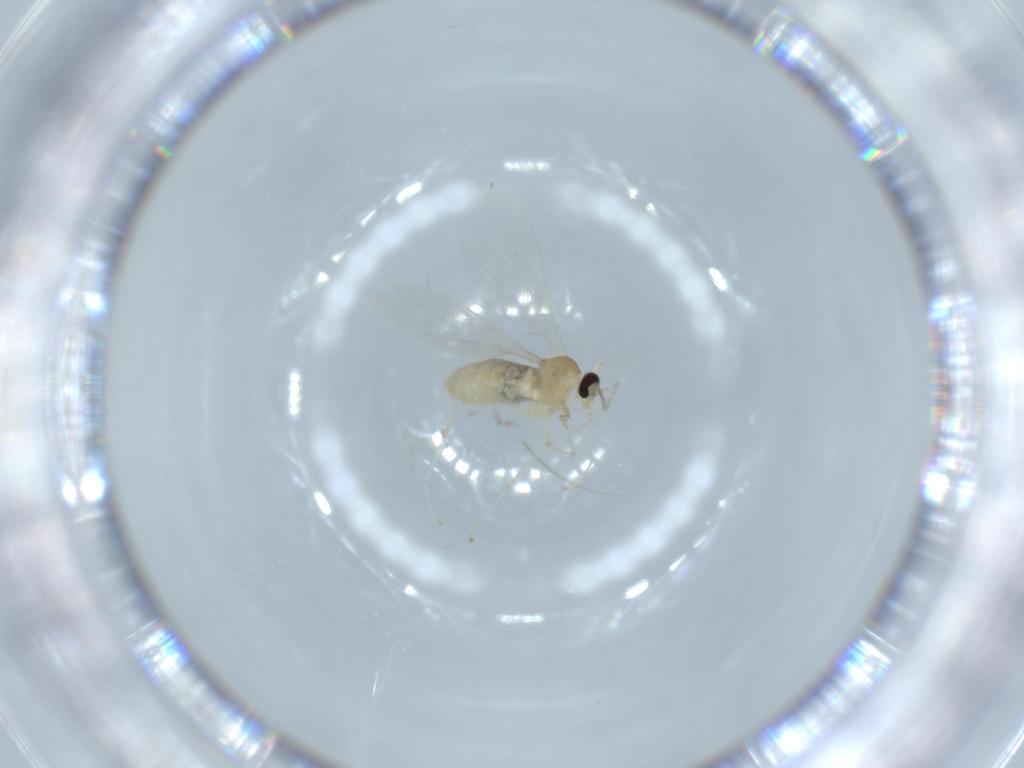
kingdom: Animalia
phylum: Arthropoda
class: Insecta
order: Diptera
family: Cecidomyiidae
